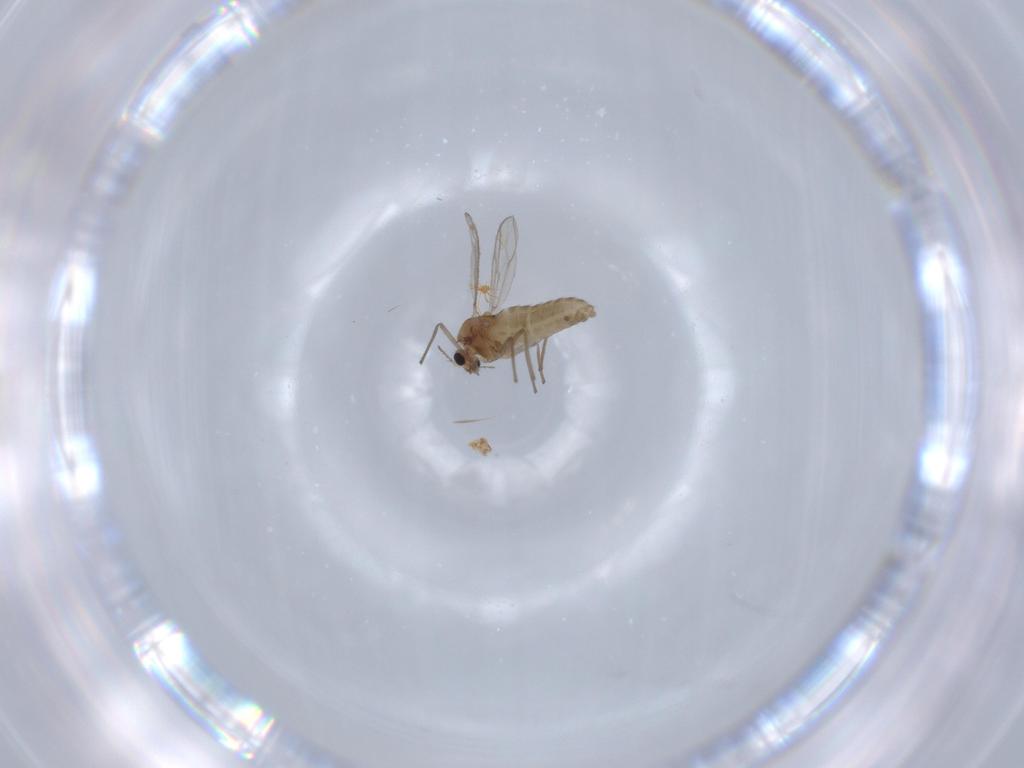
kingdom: Animalia
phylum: Arthropoda
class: Insecta
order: Diptera
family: Chironomidae
